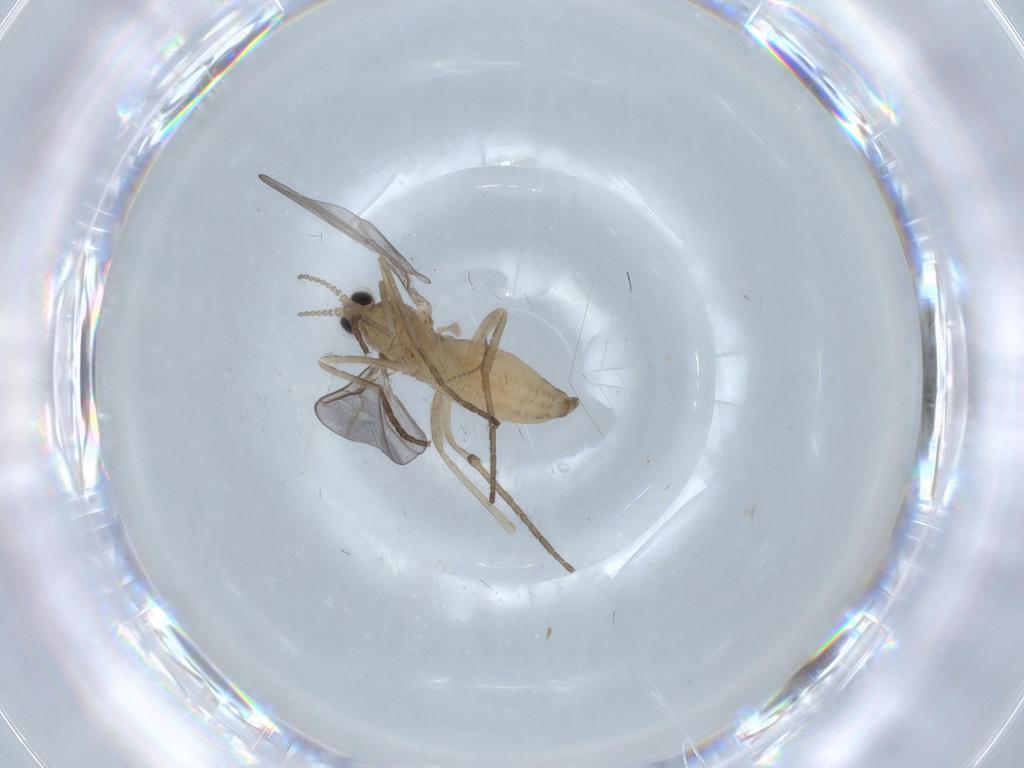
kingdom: Animalia
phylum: Arthropoda
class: Insecta
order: Diptera
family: Cecidomyiidae
